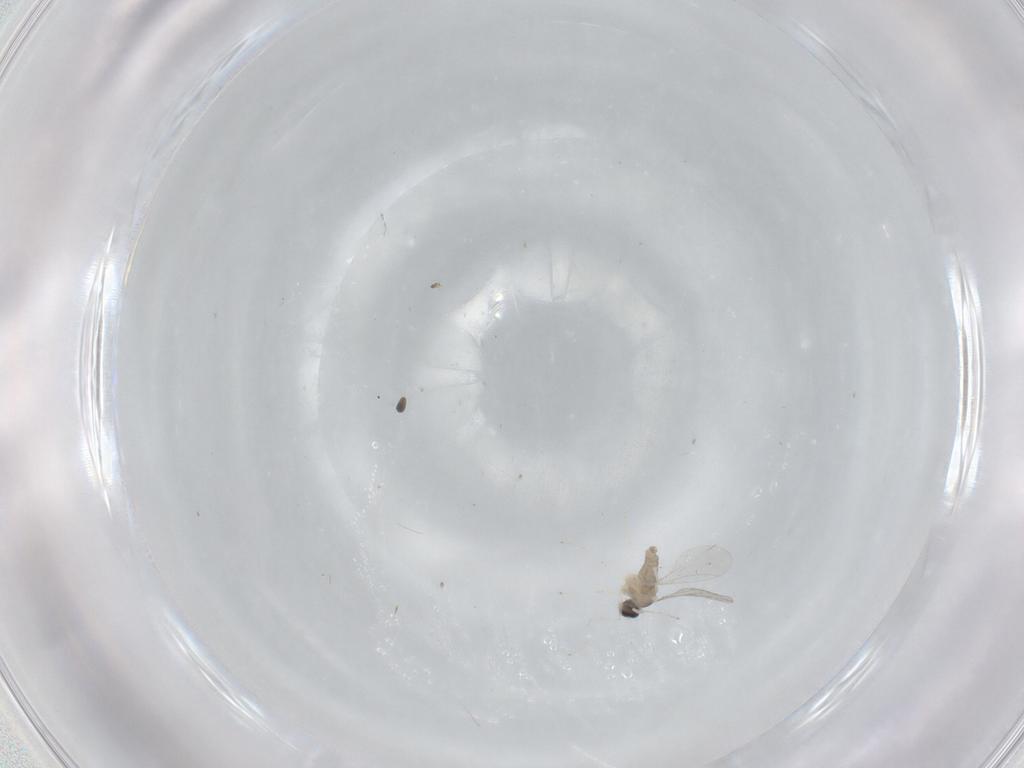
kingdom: Animalia
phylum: Arthropoda
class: Insecta
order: Diptera
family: Cecidomyiidae
